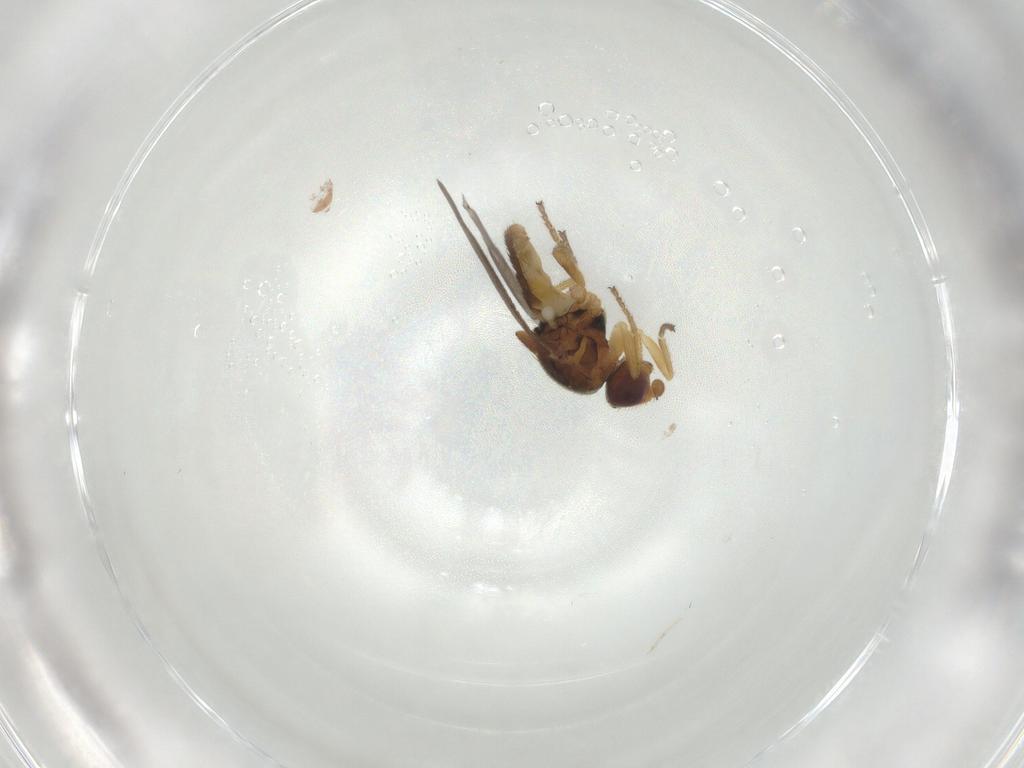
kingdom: Animalia
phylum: Arthropoda
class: Insecta
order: Diptera
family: Chloropidae
